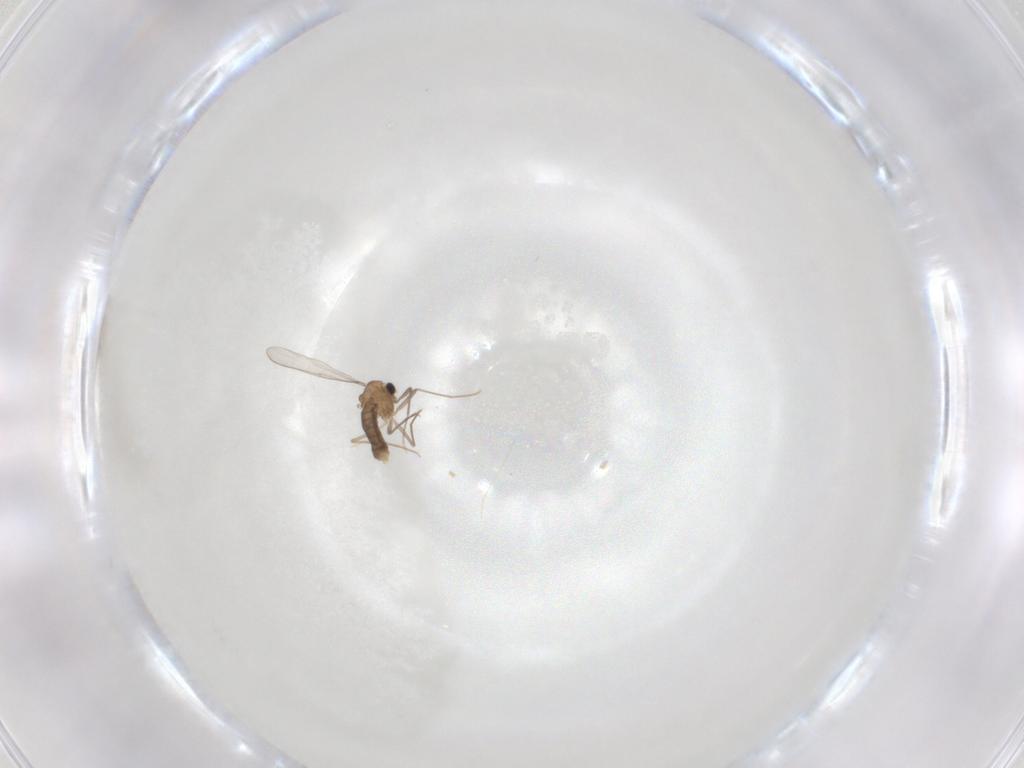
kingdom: Animalia
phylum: Arthropoda
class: Insecta
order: Diptera
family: Chironomidae
